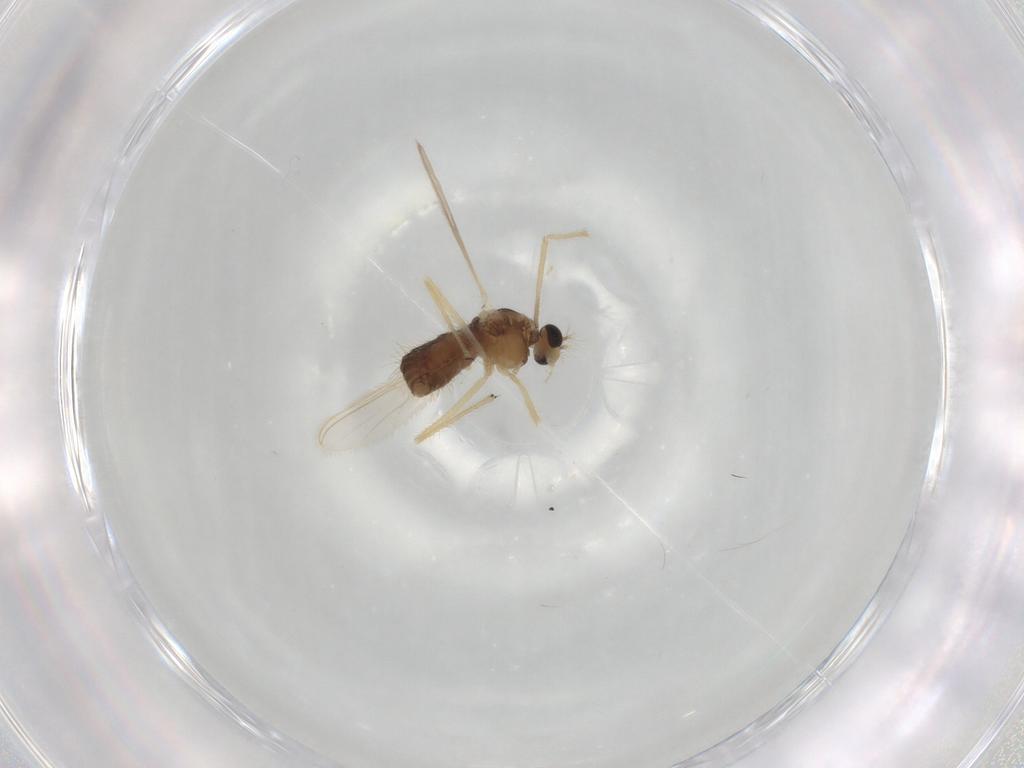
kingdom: Animalia
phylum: Arthropoda
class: Insecta
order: Diptera
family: Chironomidae
